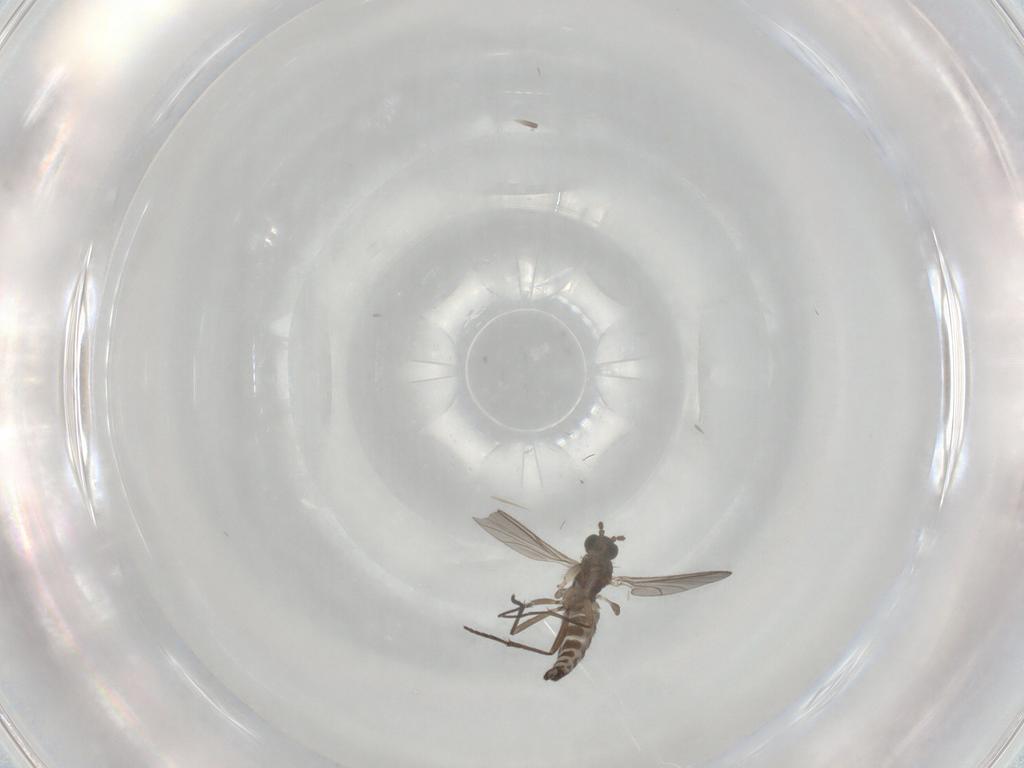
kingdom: Animalia
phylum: Arthropoda
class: Insecta
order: Diptera
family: Sciaridae
